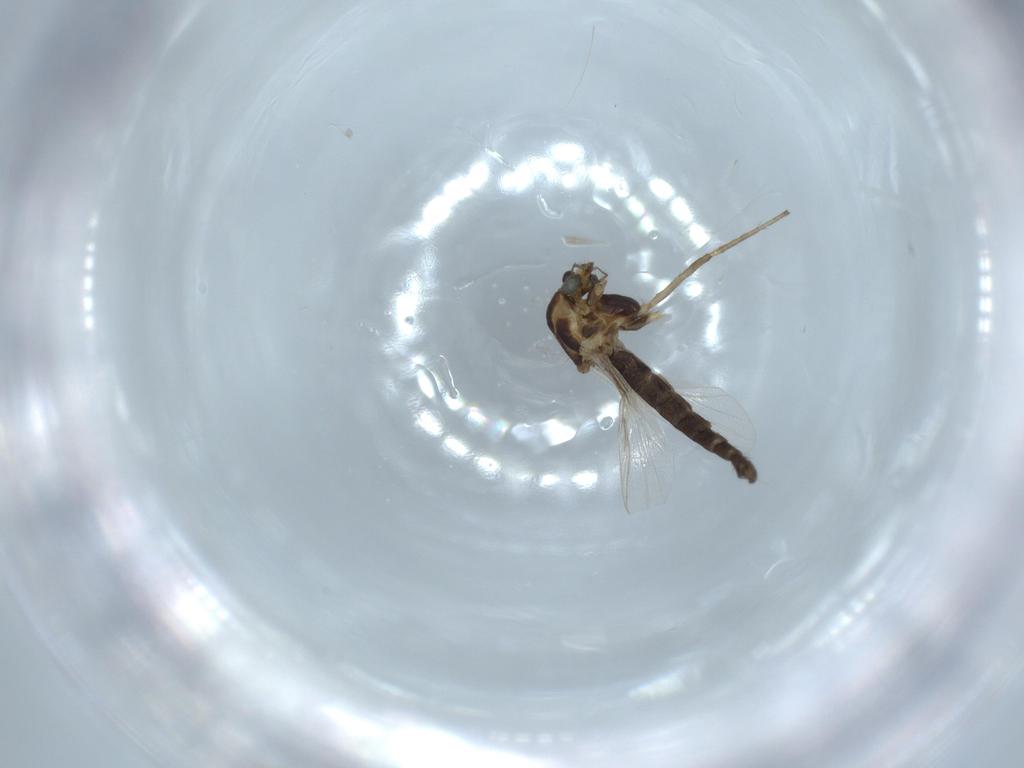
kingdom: Animalia
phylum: Arthropoda
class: Insecta
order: Diptera
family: Chironomidae
